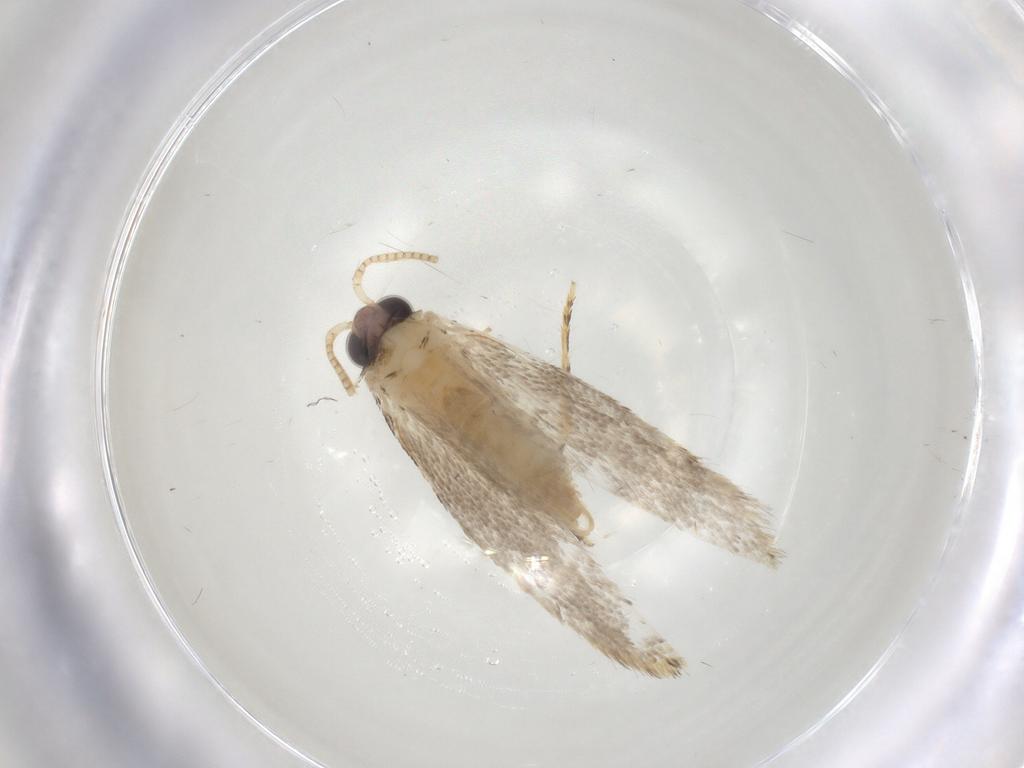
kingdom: Animalia
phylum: Arthropoda
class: Insecta
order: Lepidoptera
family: Tineidae
